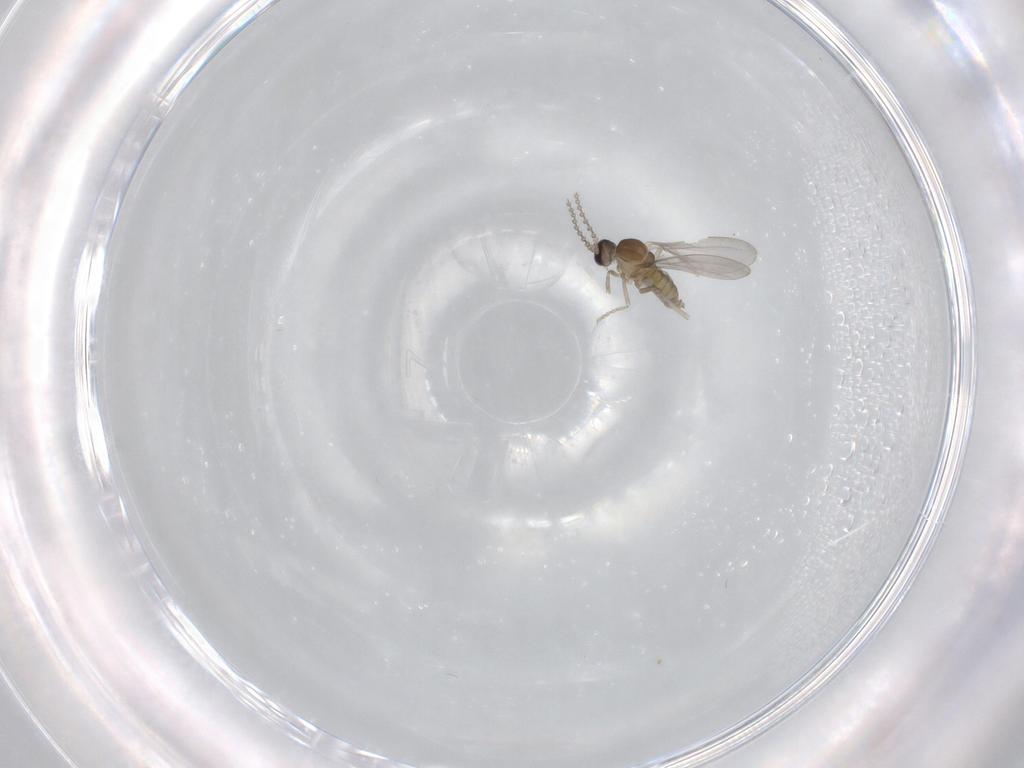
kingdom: Animalia
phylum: Arthropoda
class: Insecta
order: Diptera
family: Cecidomyiidae
